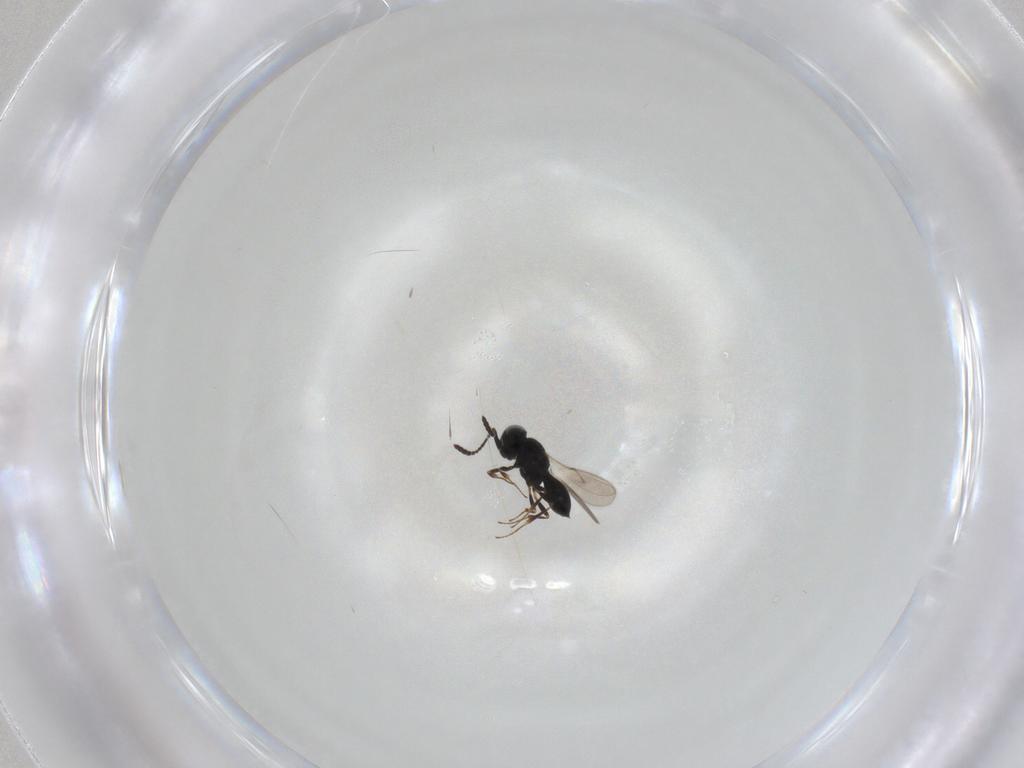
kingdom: Animalia
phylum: Arthropoda
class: Insecta
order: Hymenoptera
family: Scelionidae
